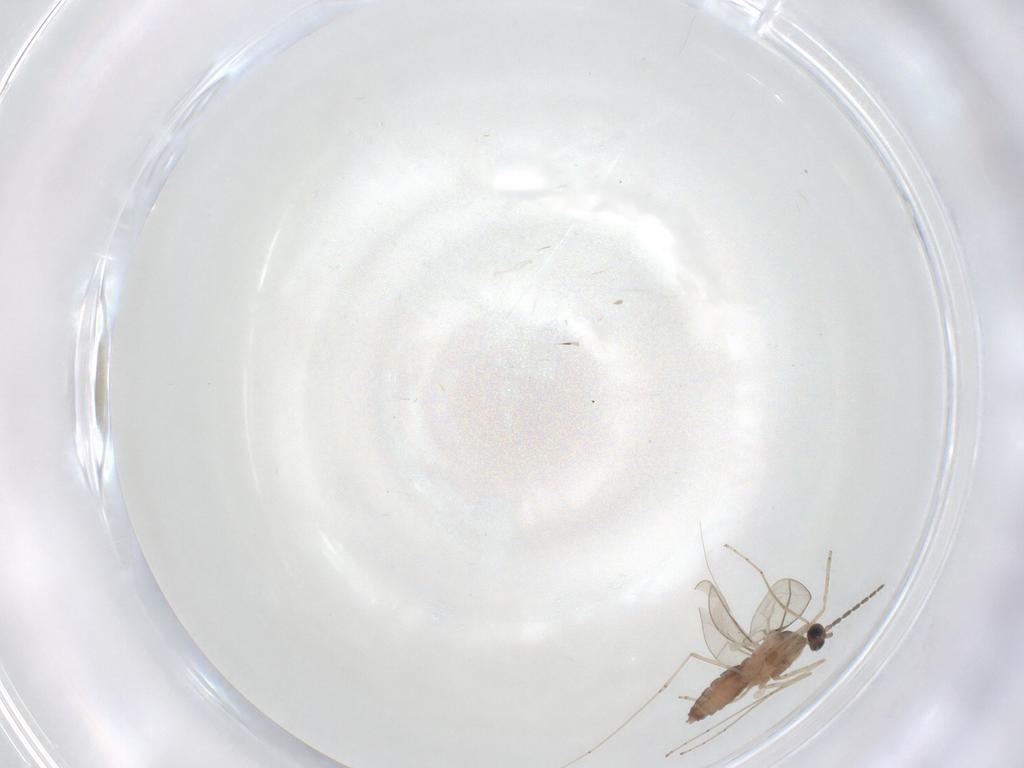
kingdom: Animalia
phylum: Arthropoda
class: Insecta
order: Diptera
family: Cecidomyiidae
